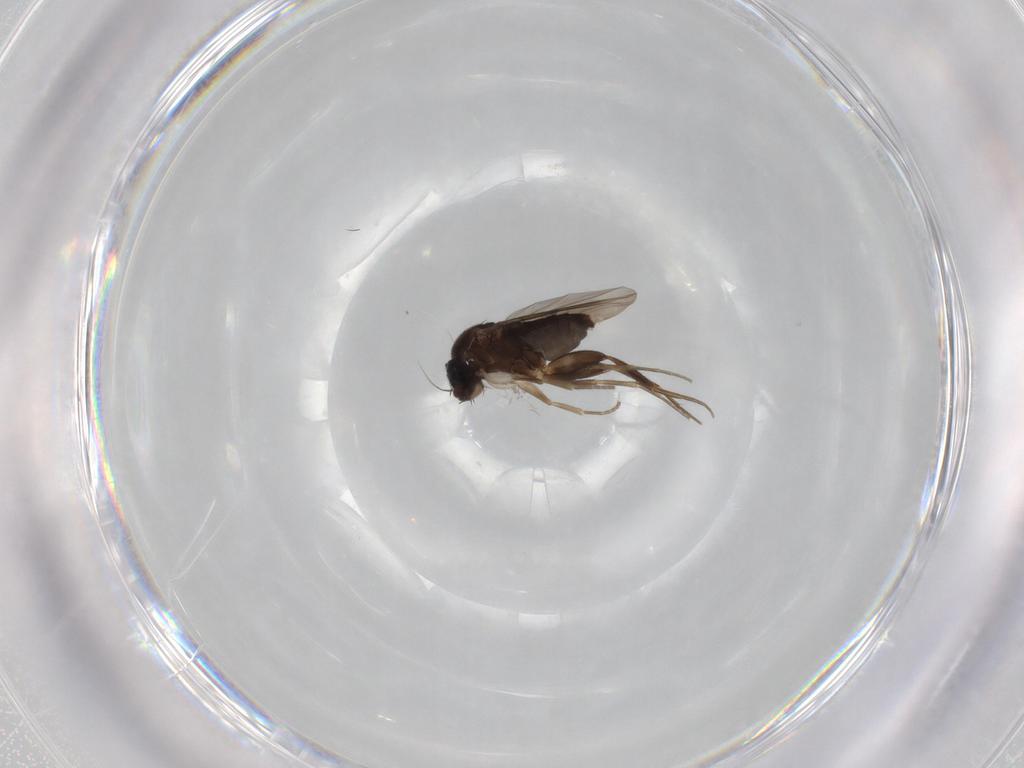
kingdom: Animalia
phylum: Arthropoda
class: Insecta
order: Diptera
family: Phoridae
